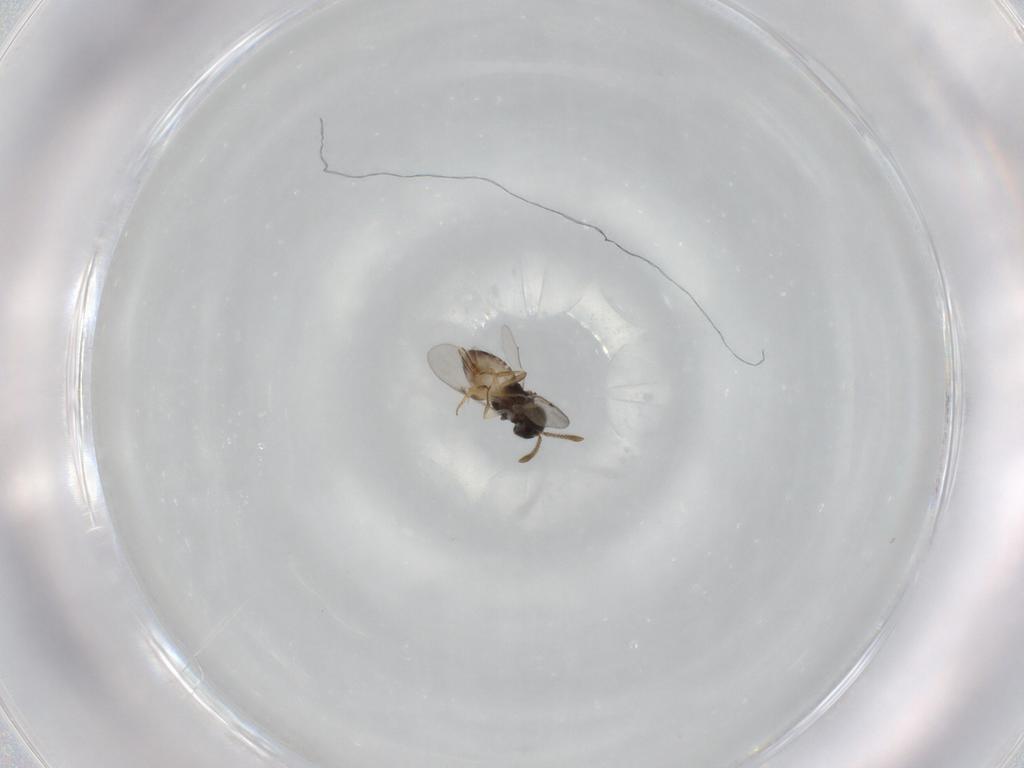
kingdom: Animalia
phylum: Arthropoda
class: Insecta
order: Hymenoptera
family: Encyrtidae
